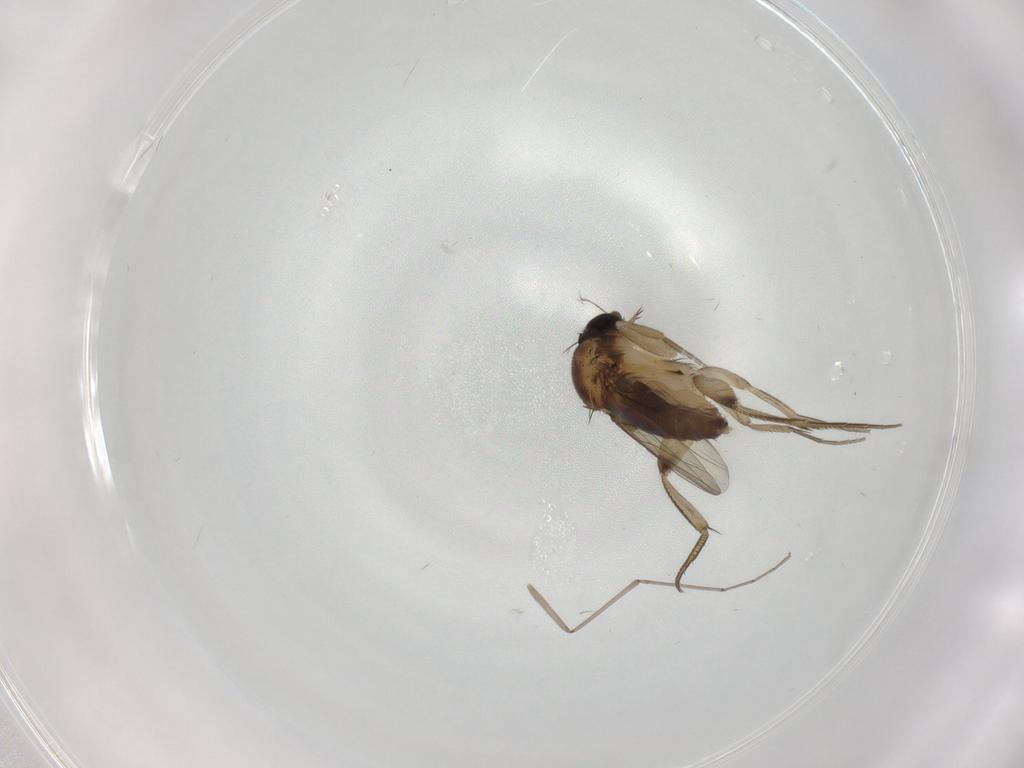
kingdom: Animalia
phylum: Arthropoda
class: Insecta
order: Diptera
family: Phoridae
